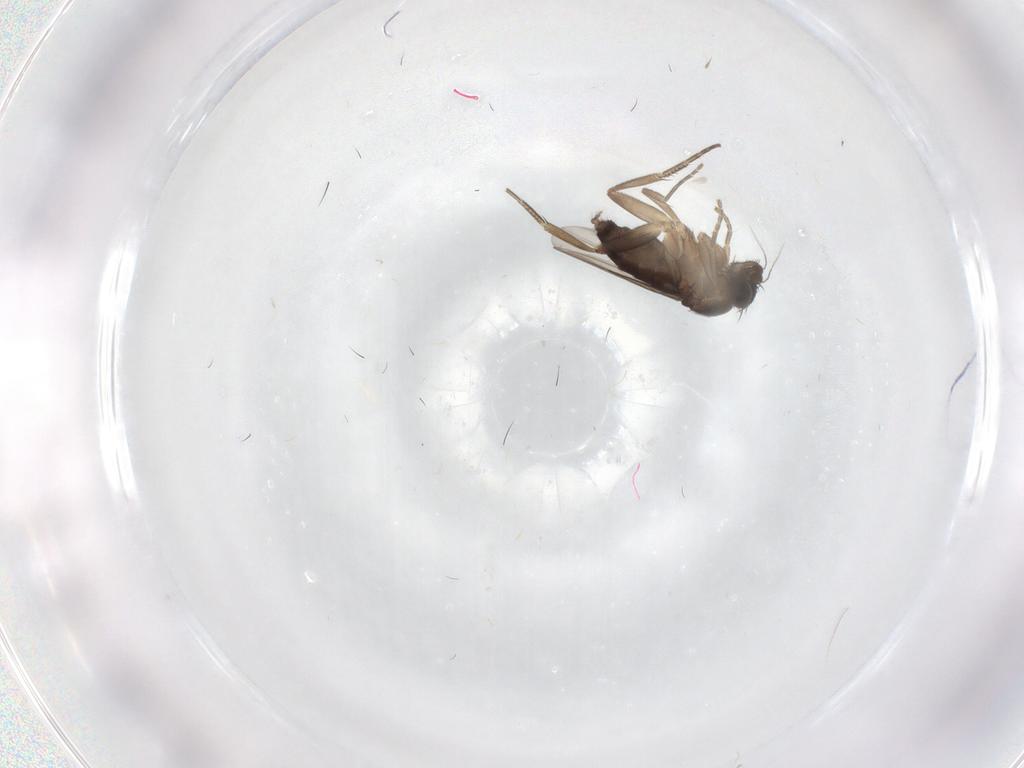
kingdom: Animalia
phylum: Arthropoda
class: Insecta
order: Diptera
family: Phoridae
